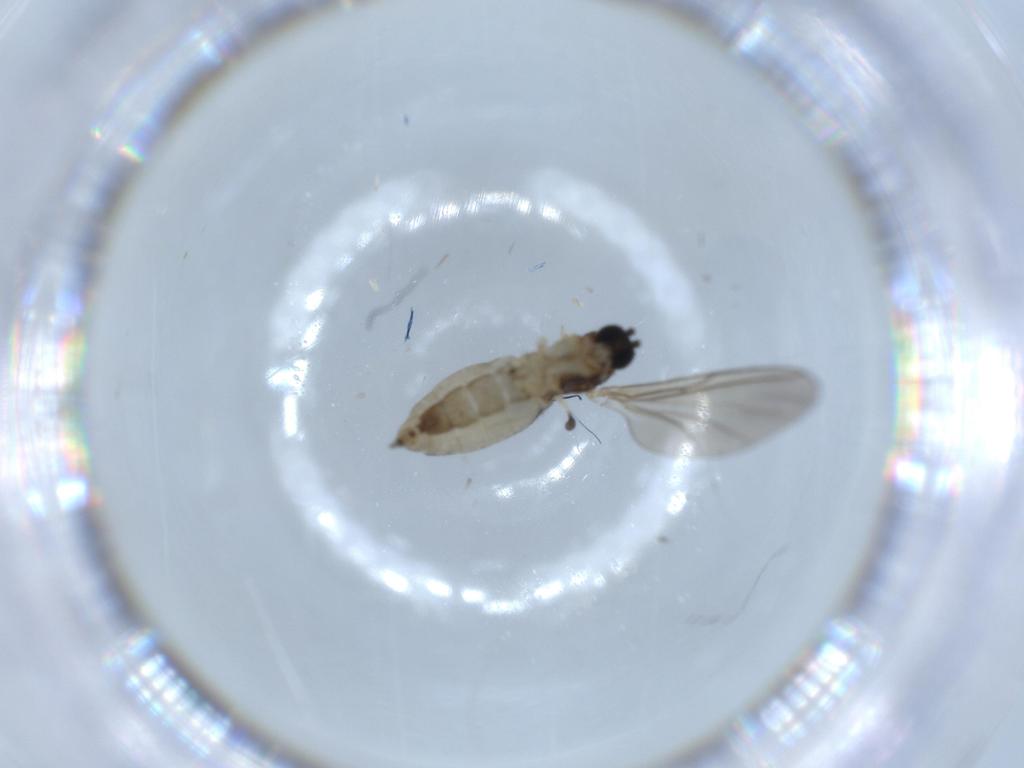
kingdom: Animalia
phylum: Arthropoda
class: Insecta
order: Diptera
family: Sciaridae
